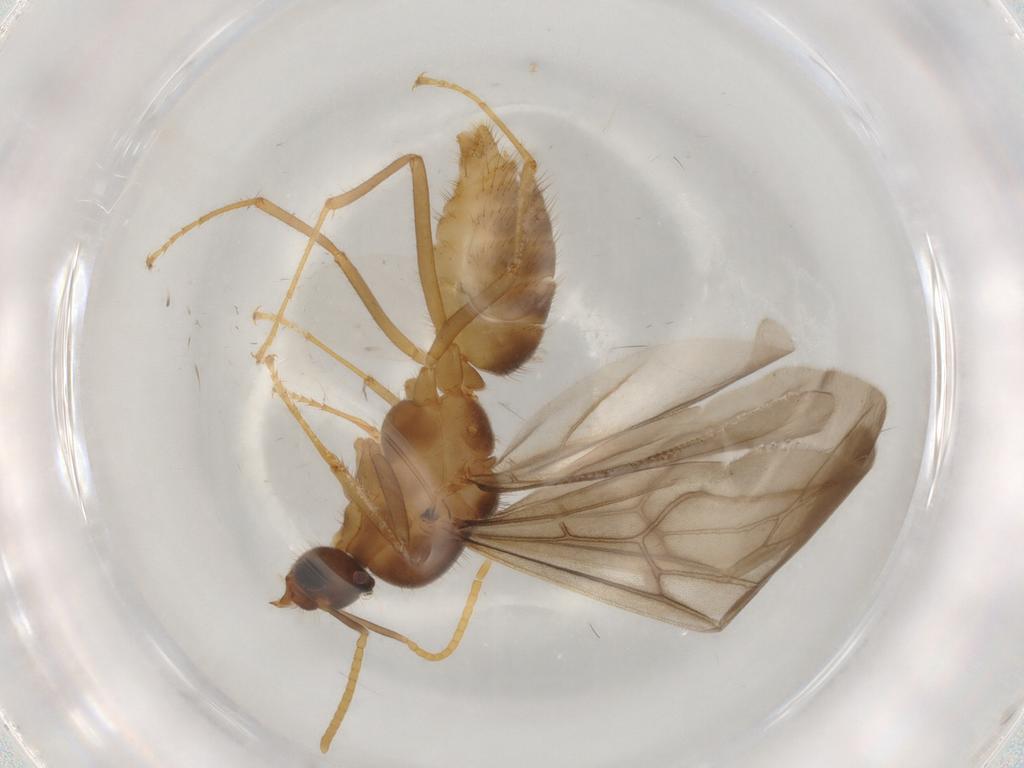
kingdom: Animalia
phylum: Arthropoda
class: Insecta
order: Hymenoptera
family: Formicidae
